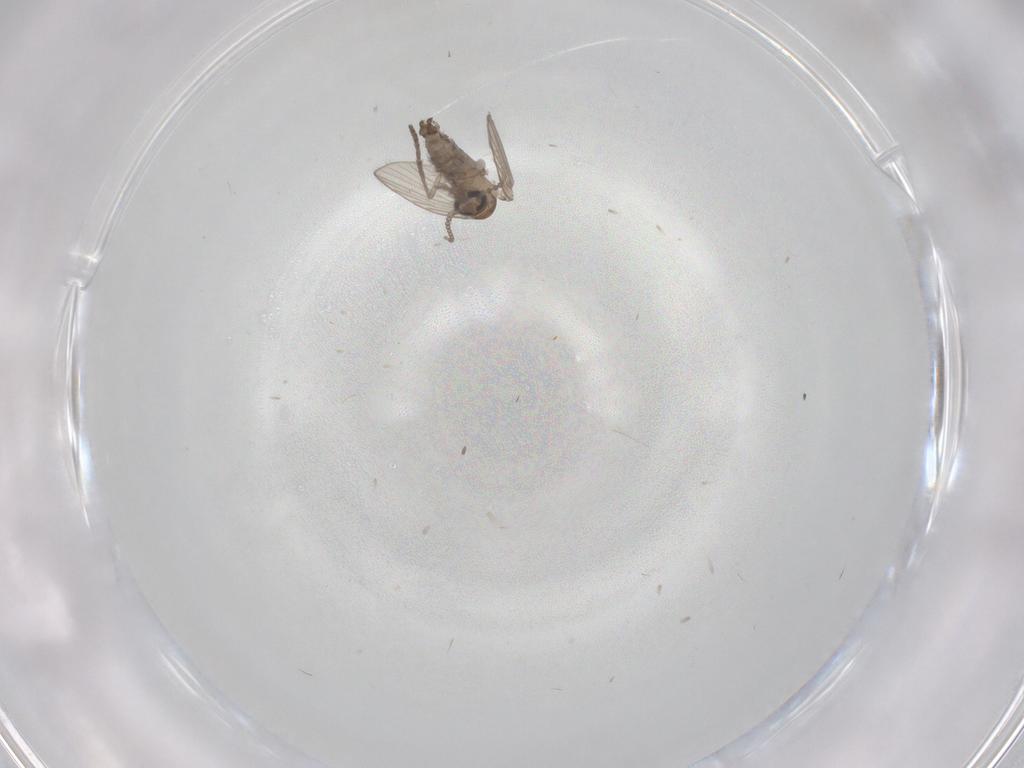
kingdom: Animalia
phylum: Arthropoda
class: Insecta
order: Diptera
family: Psychodidae
